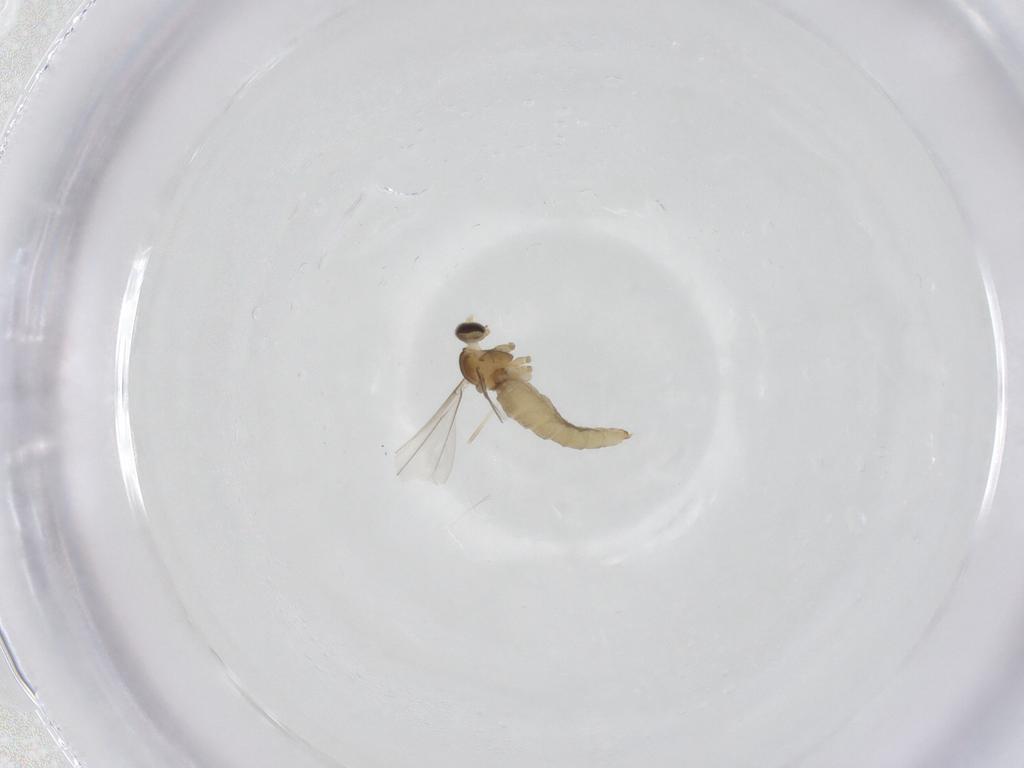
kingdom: Animalia
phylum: Arthropoda
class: Insecta
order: Diptera
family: Cecidomyiidae
